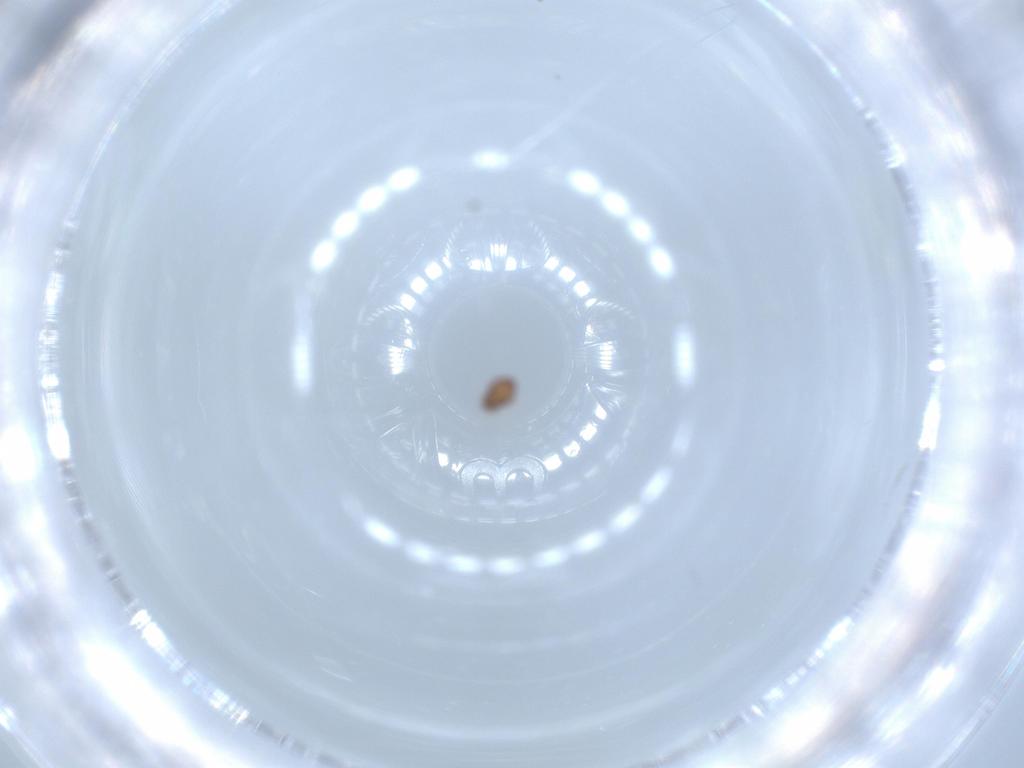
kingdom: Animalia
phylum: Arthropoda
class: Arachnida
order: Sarcoptiformes
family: Dendroeremaeidae
